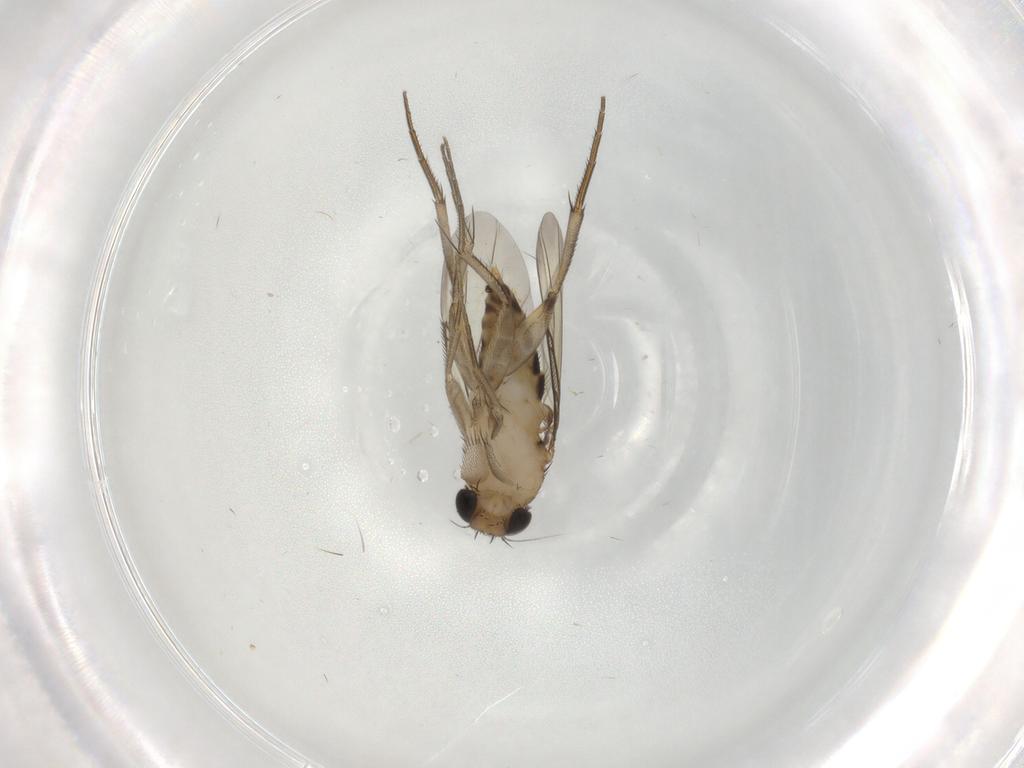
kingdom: Animalia
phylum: Arthropoda
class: Insecta
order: Diptera
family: Phoridae
